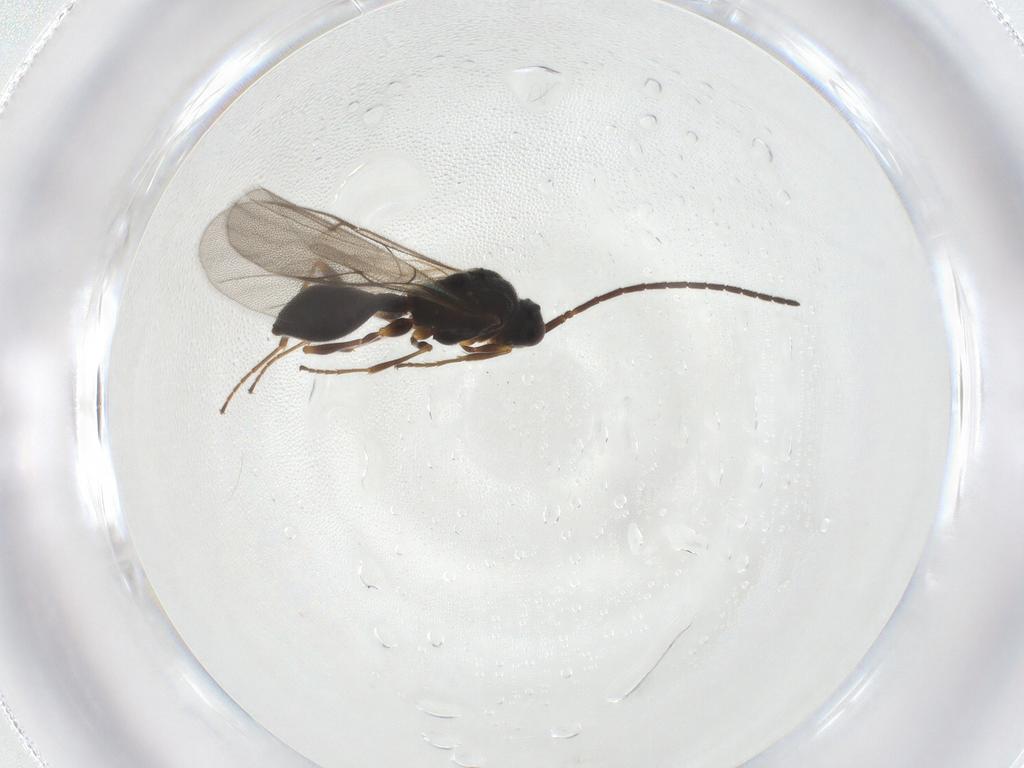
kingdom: Animalia
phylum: Arthropoda
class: Insecta
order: Hymenoptera
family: Diapriidae
